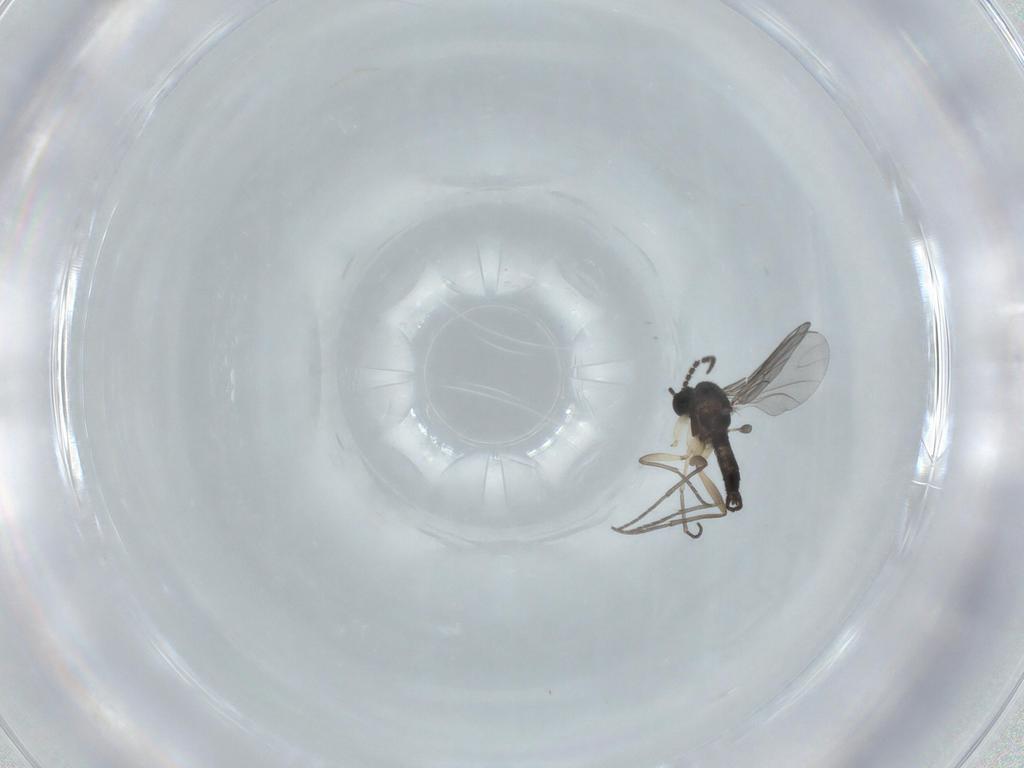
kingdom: Animalia
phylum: Arthropoda
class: Insecta
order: Diptera
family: Sciaridae
